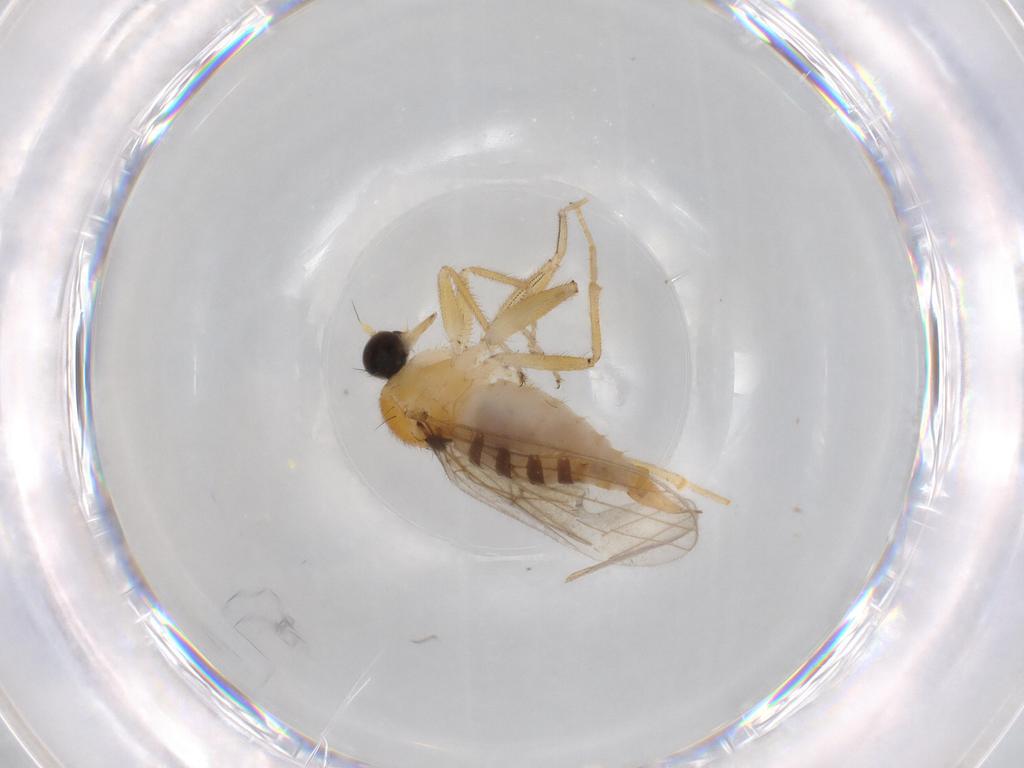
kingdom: Animalia
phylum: Arthropoda
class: Insecta
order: Diptera
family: Hybotidae
